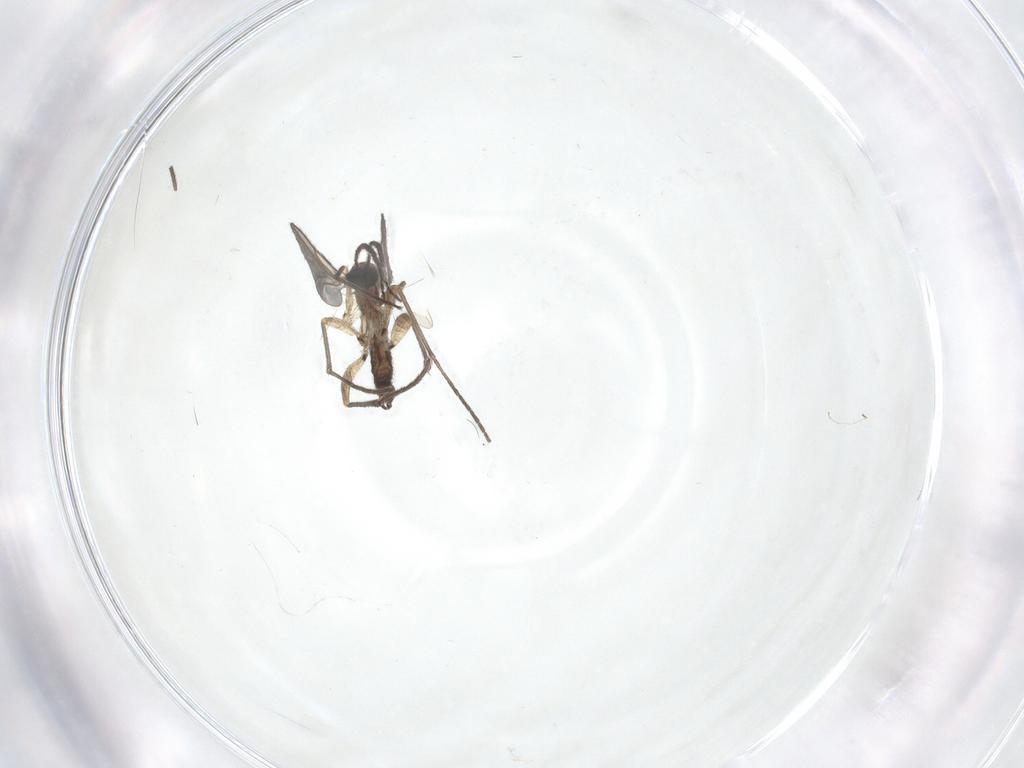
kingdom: Animalia
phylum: Arthropoda
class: Insecta
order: Diptera
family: Sciaridae
